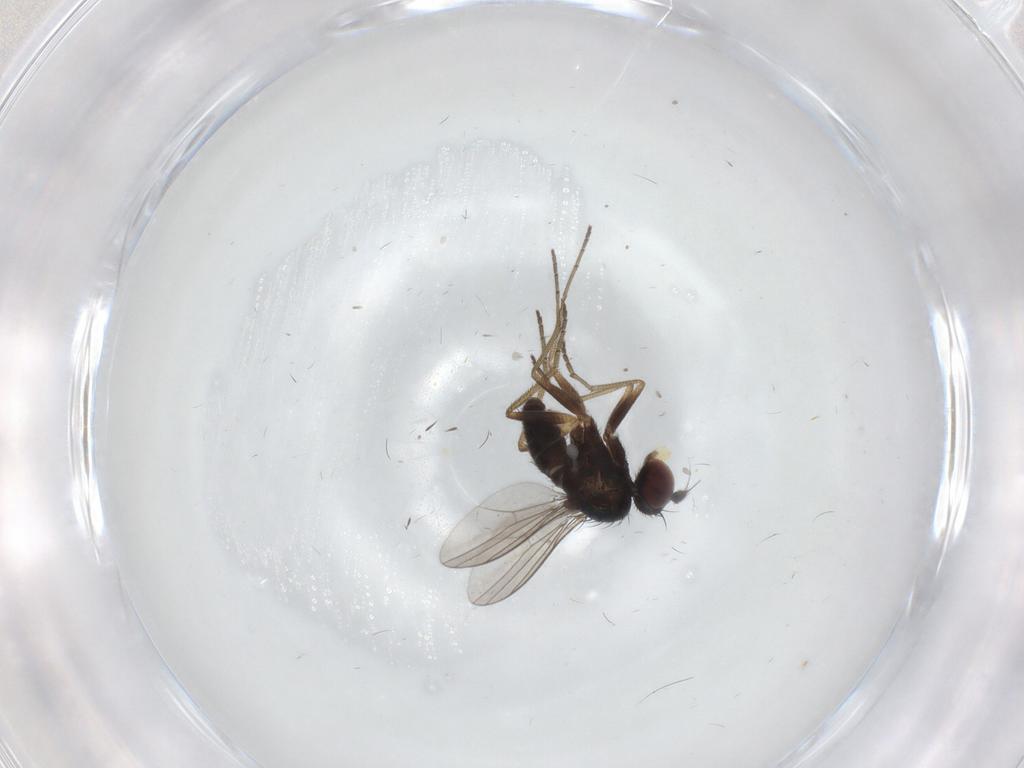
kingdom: Animalia
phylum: Arthropoda
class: Insecta
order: Diptera
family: Dolichopodidae
